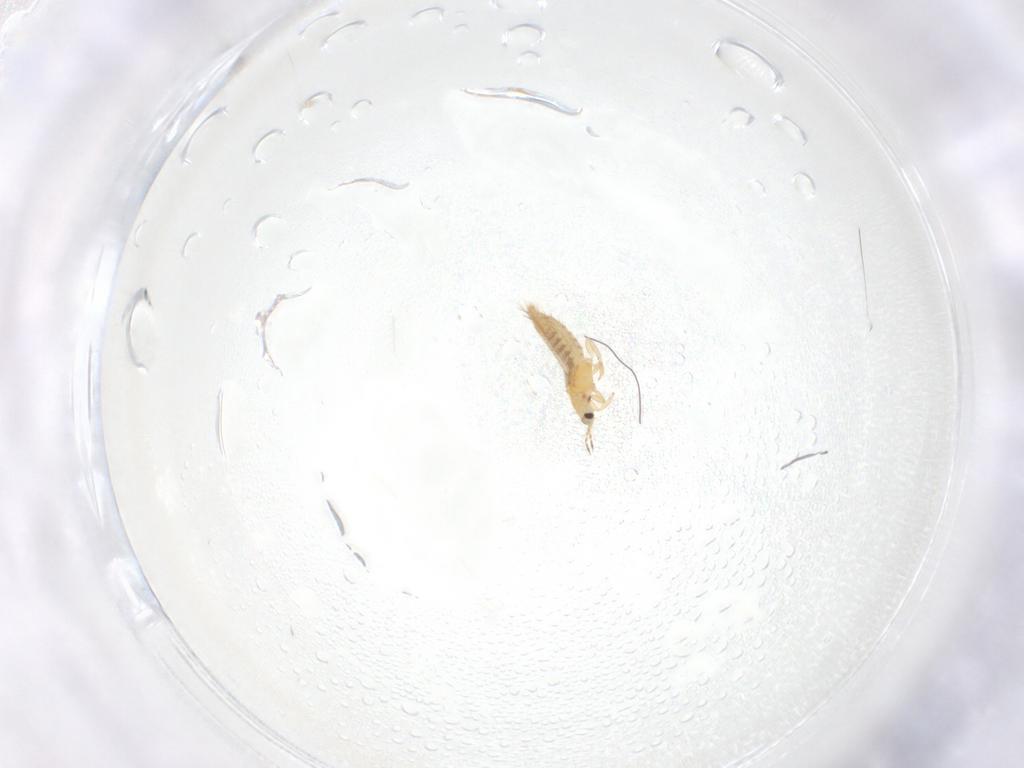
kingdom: Animalia
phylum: Arthropoda
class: Insecta
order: Thysanoptera
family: Thripidae
